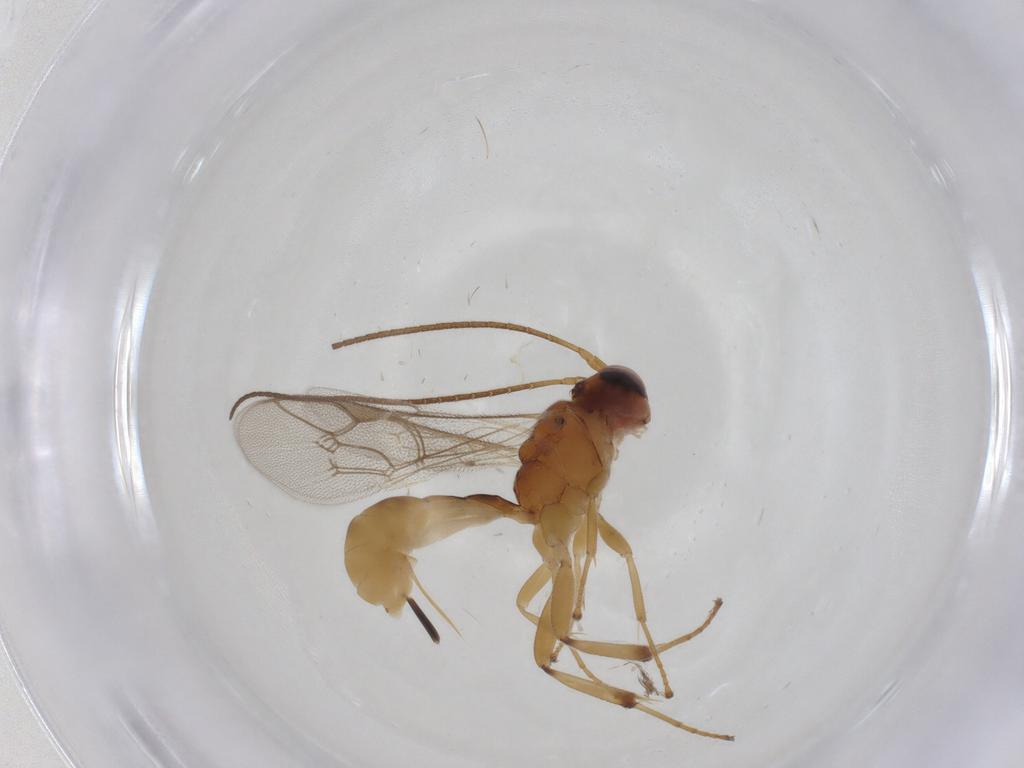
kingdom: Animalia
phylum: Arthropoda
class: Insecta
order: Hymenoptera
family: Ichneumonidae
